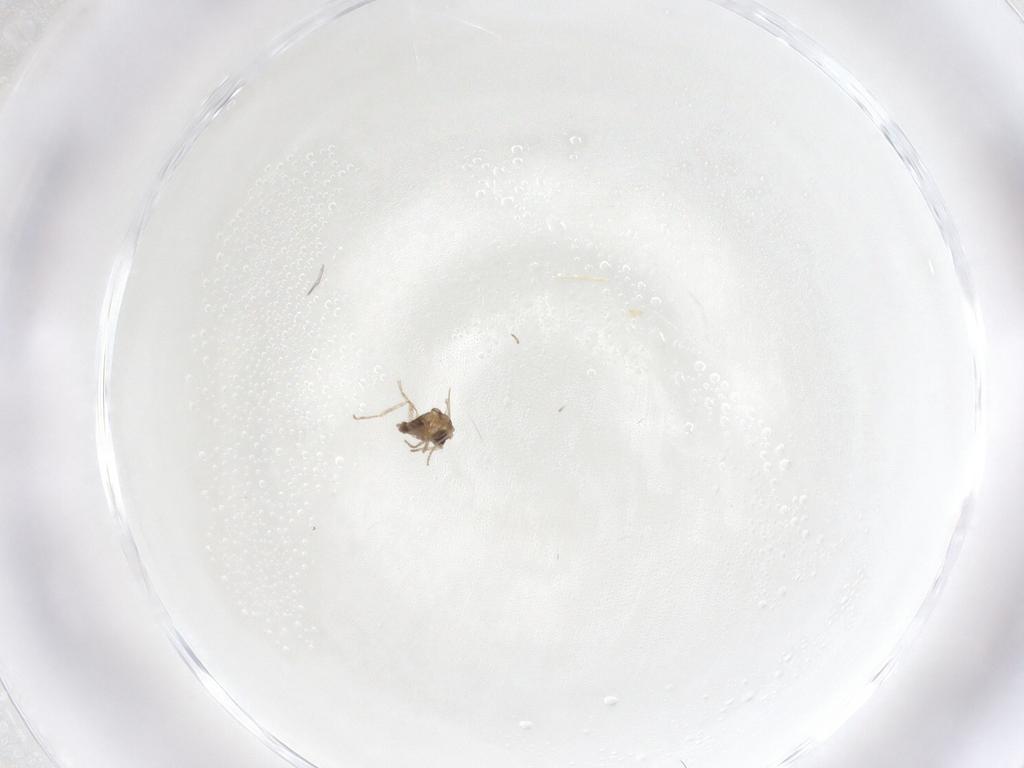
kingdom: Animalia
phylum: Arthropoda
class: Insecta
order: Diptera
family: Cecidomyiidae
